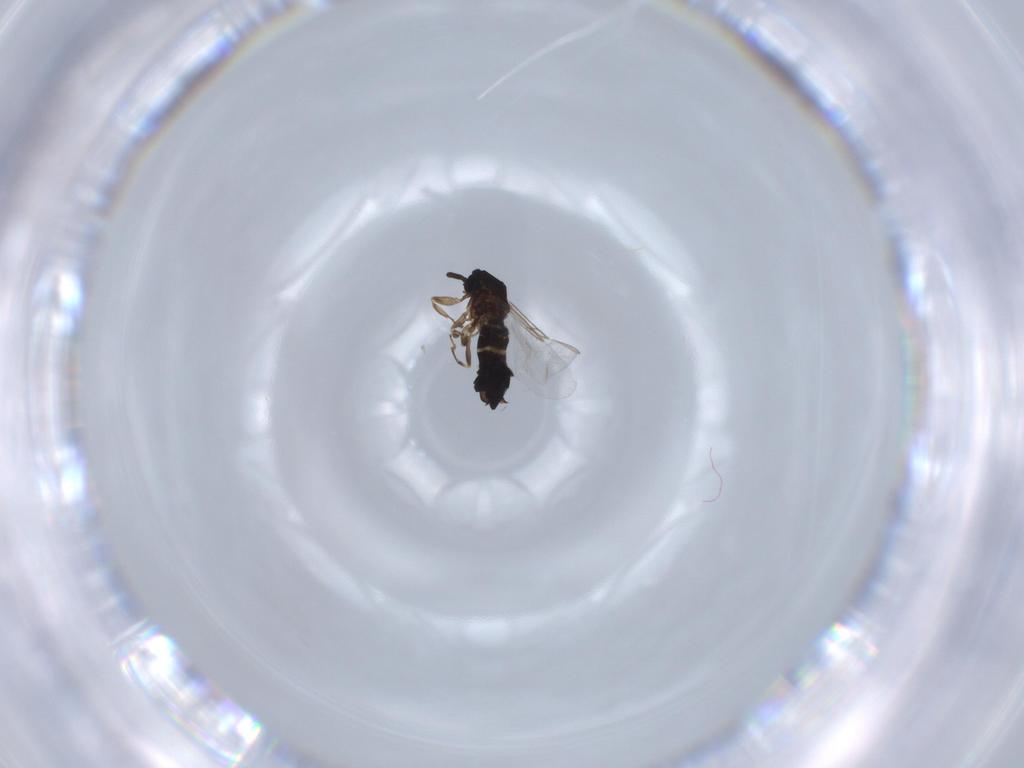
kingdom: Animalia
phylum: Arthropoda
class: Insecta
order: Diptera
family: Scatopsidae
